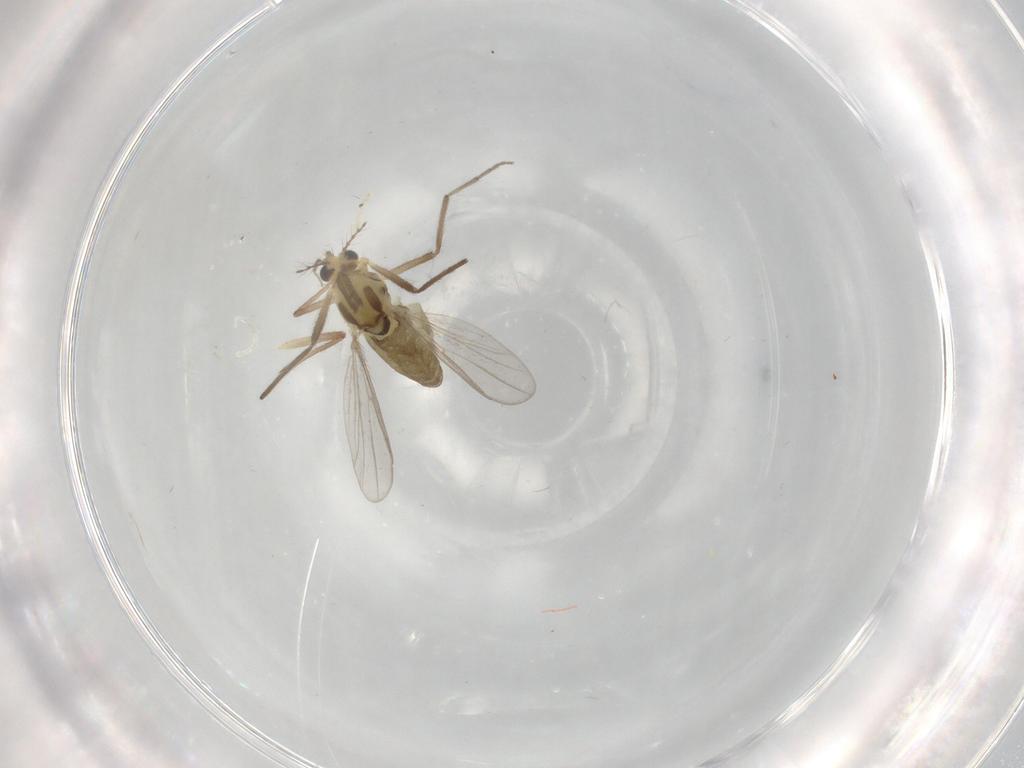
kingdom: Animalia
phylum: Arthropoda
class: Insecta
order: Diptera
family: Chironomidae
